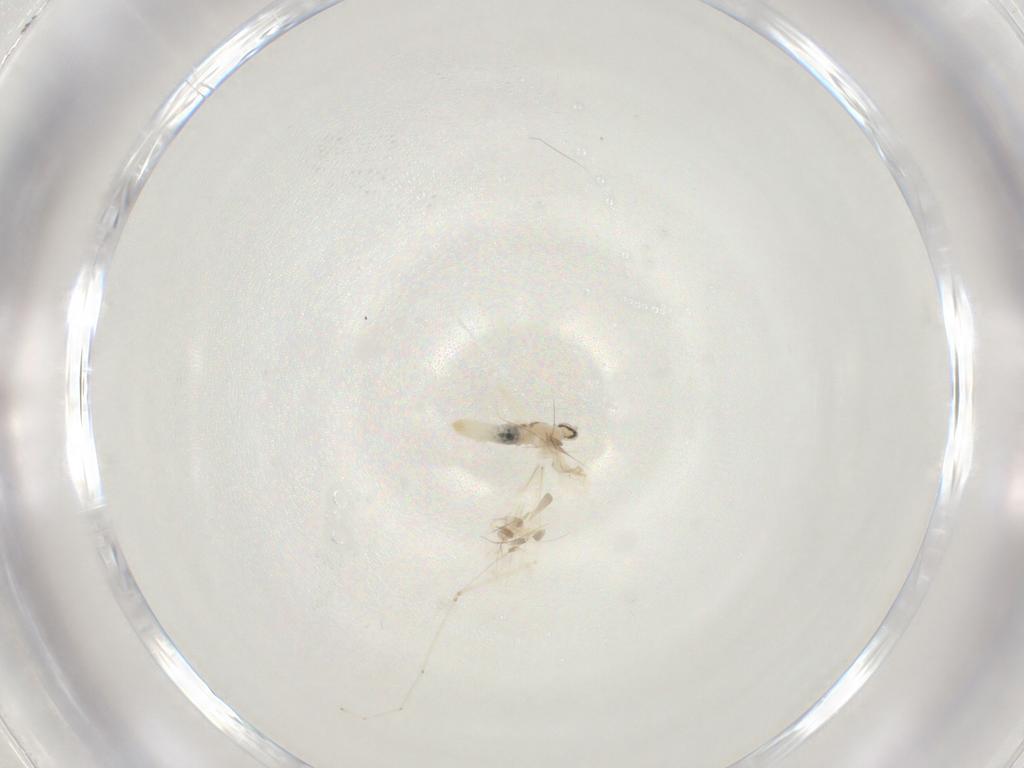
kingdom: Animalia
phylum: Arthropoda
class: Insecta
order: Diptera
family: Cecidomyiidae
